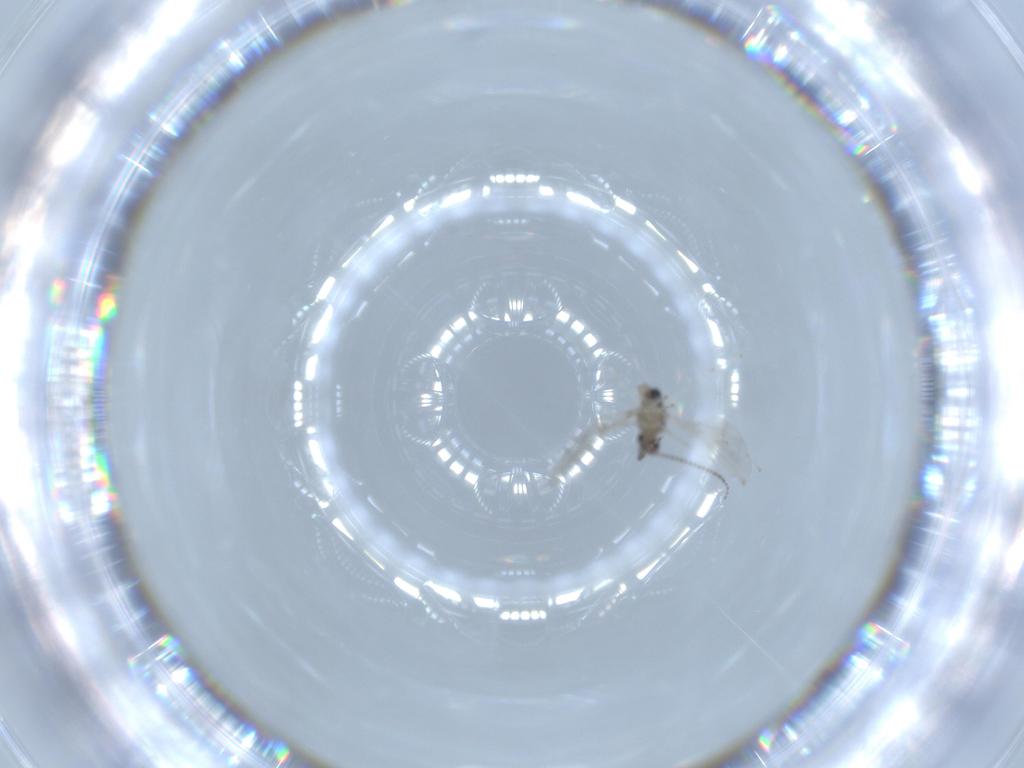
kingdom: Animalia
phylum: Arthropoda
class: Insecta
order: Diptera
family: Cecidomyiidae
